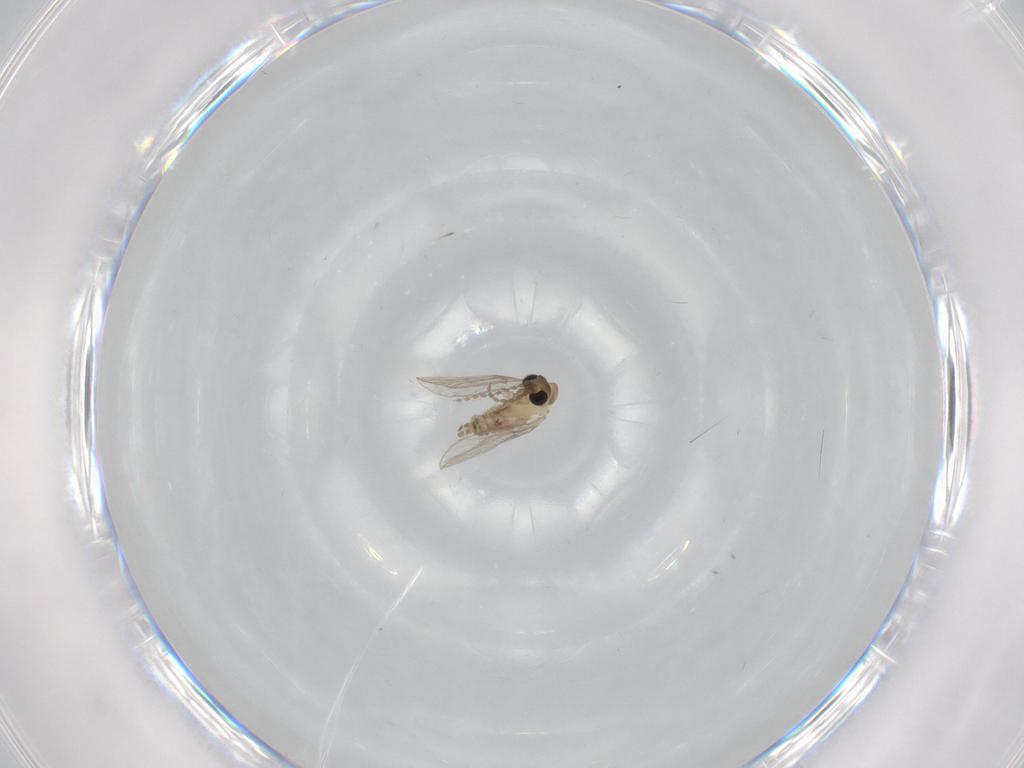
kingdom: Animalia
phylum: Arthropoda
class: Insecta
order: Diptera
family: Psychodidae
